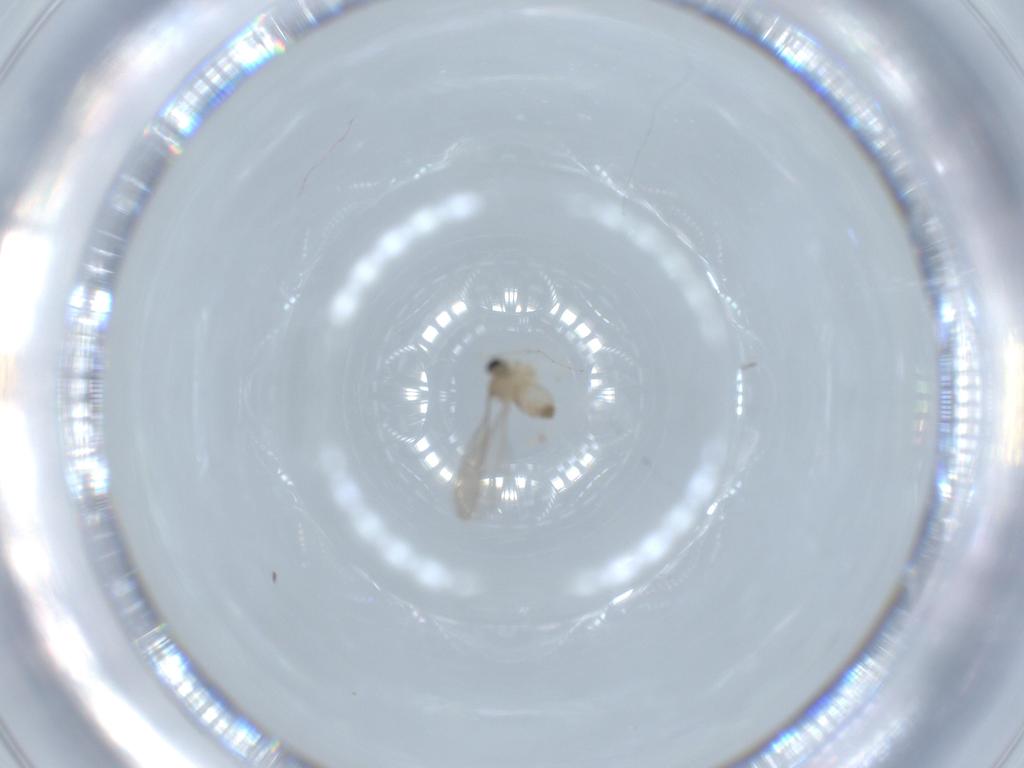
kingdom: Animalia
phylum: Arthropoda
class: Insecta
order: Diptera
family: Cecidomyiidae
